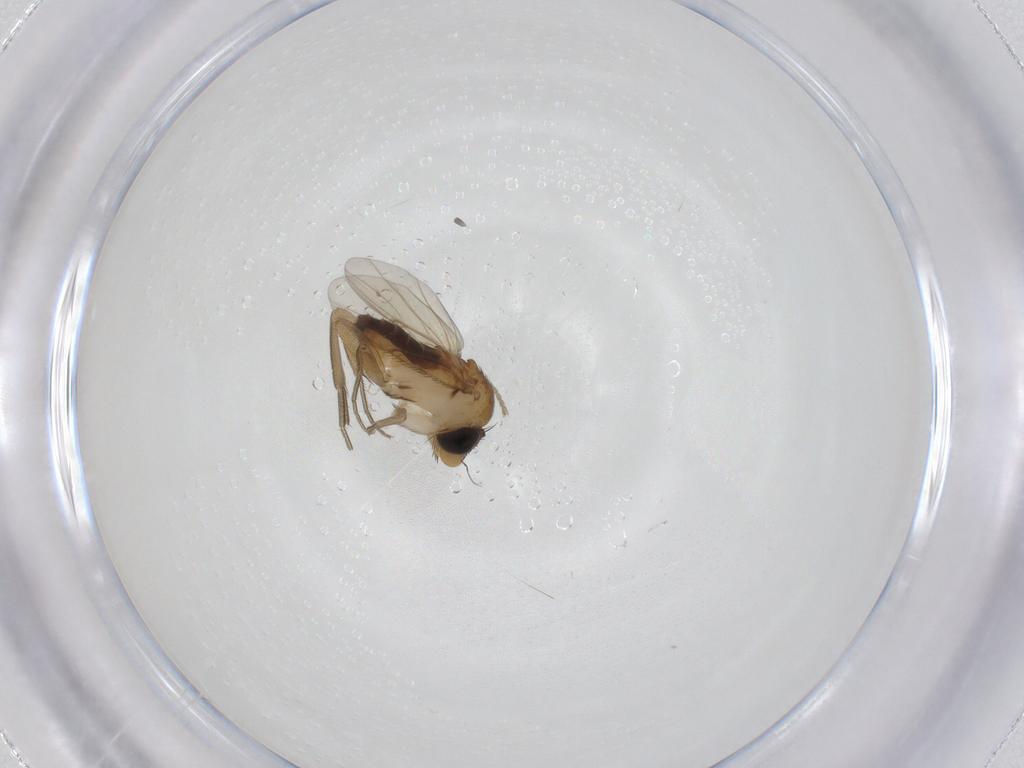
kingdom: Animalia
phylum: Arthropoda
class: Insecta
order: Diptera
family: Phoridae
